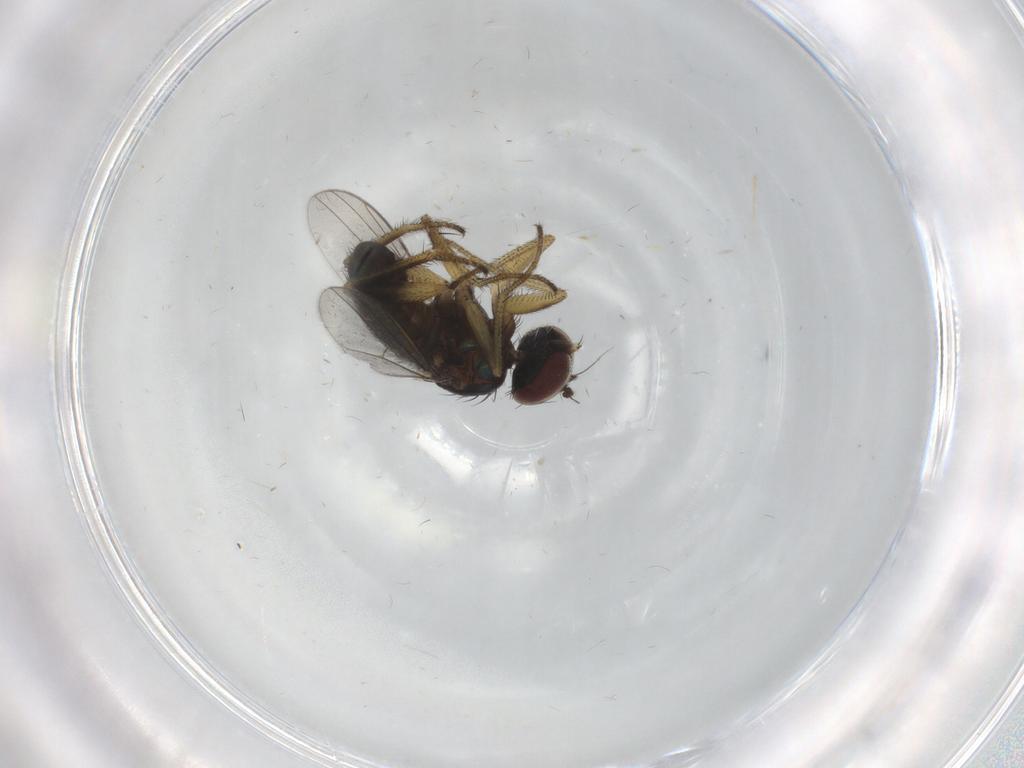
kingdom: Animalia
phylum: Arthropoda
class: Insecta
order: Diptera
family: Dolichopodidae
